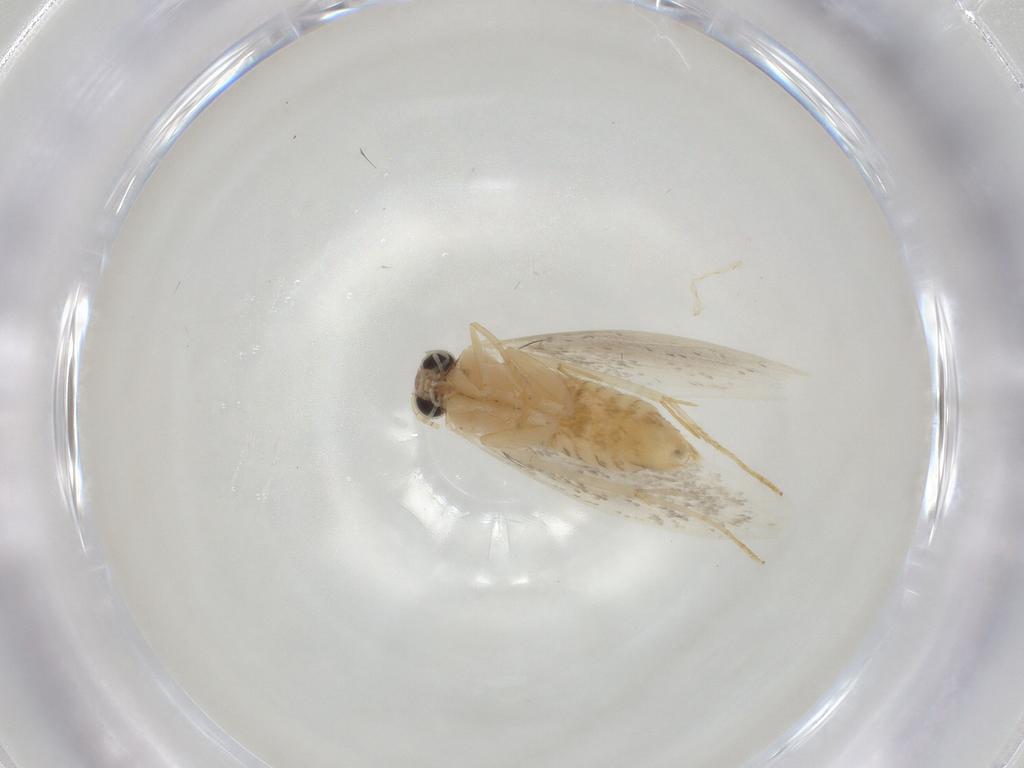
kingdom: Animalia
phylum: Arthropoda
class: Insecta
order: Lepidoptera
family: Tineidae
